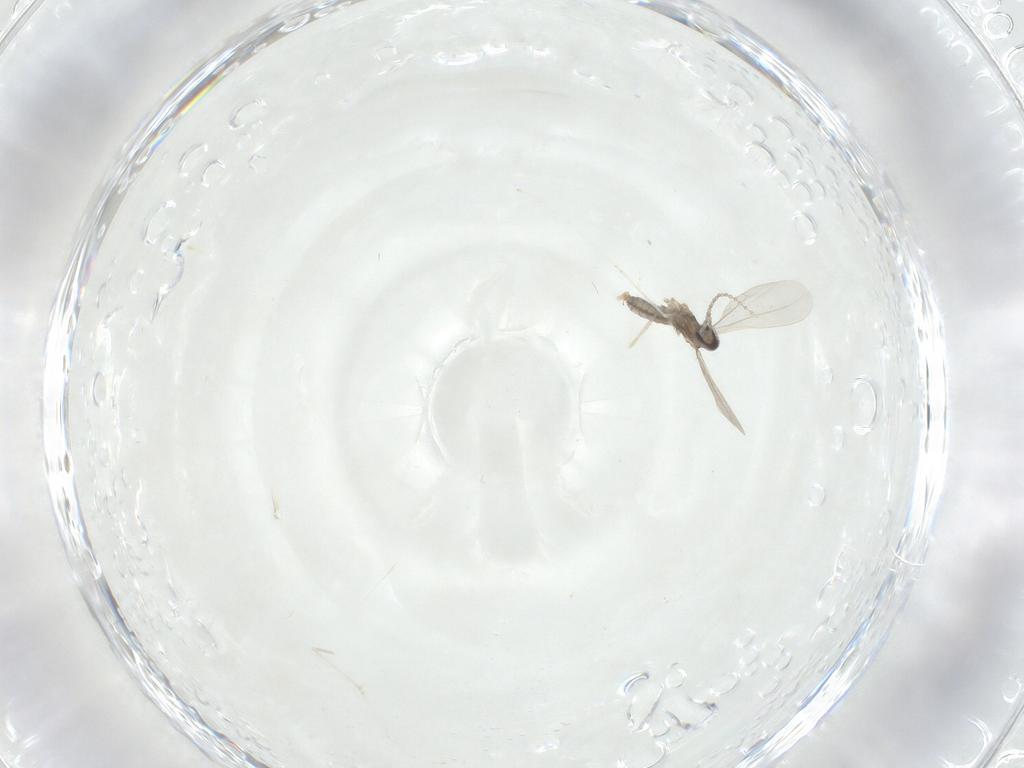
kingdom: Animalia
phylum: Arthropoda
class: Insecta
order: Diptera
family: Cecidomyiidae
